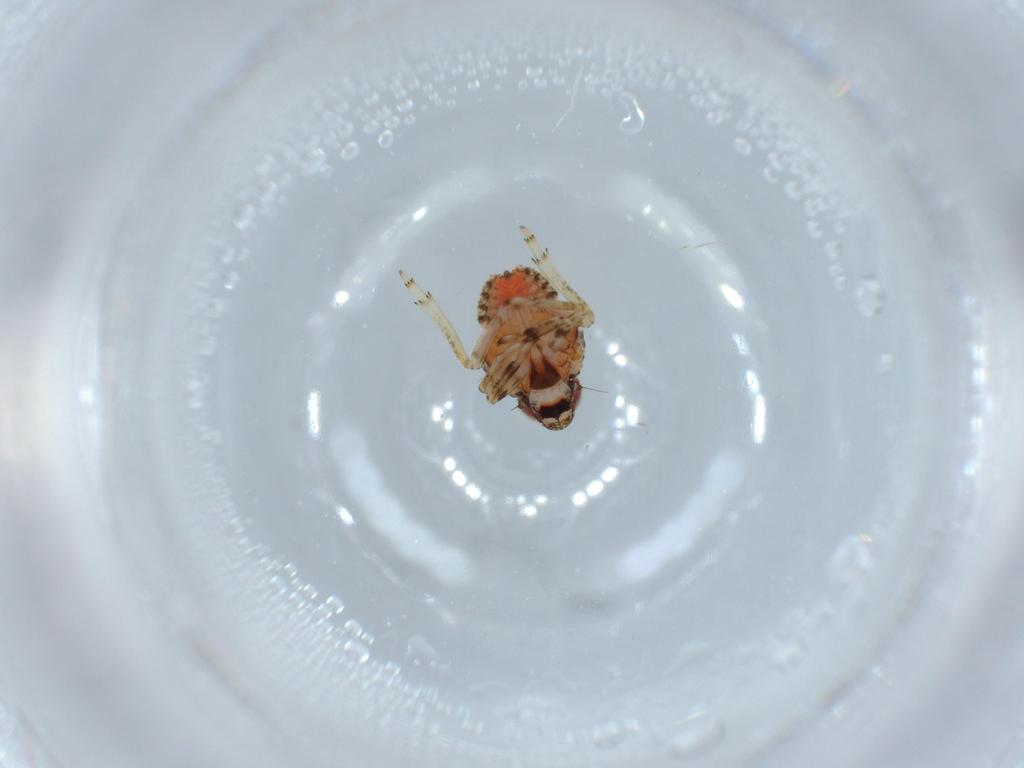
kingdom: Animalia
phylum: Arthropoda
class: Insecta
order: Hemiptera
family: Issidae
